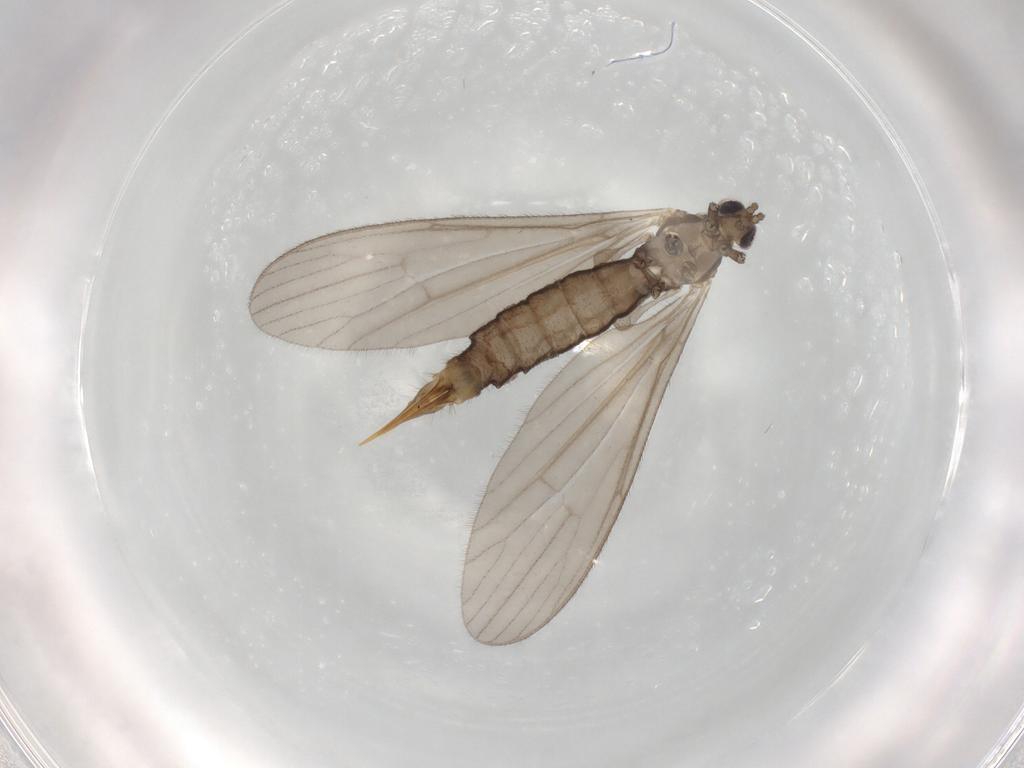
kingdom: Animalia
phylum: Arthropoda
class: Insecta
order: Diptera
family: Limoniidae
